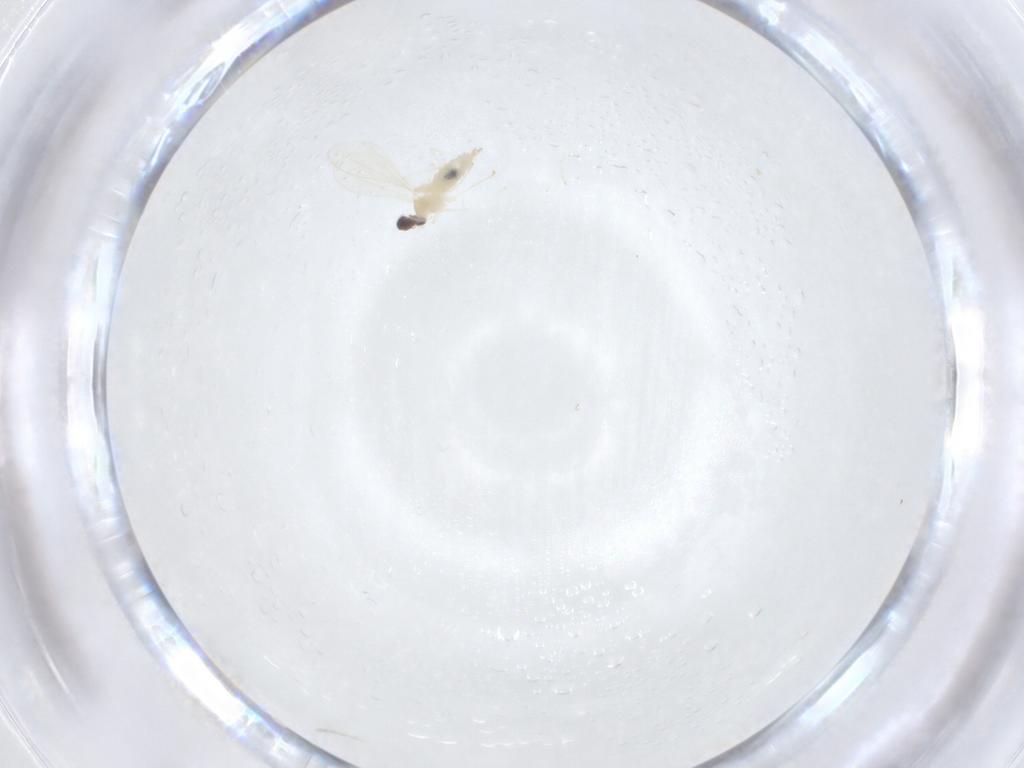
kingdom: Animalia
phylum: Arthropoda
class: Insecta
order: Diptera
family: Cecidomyiidae
